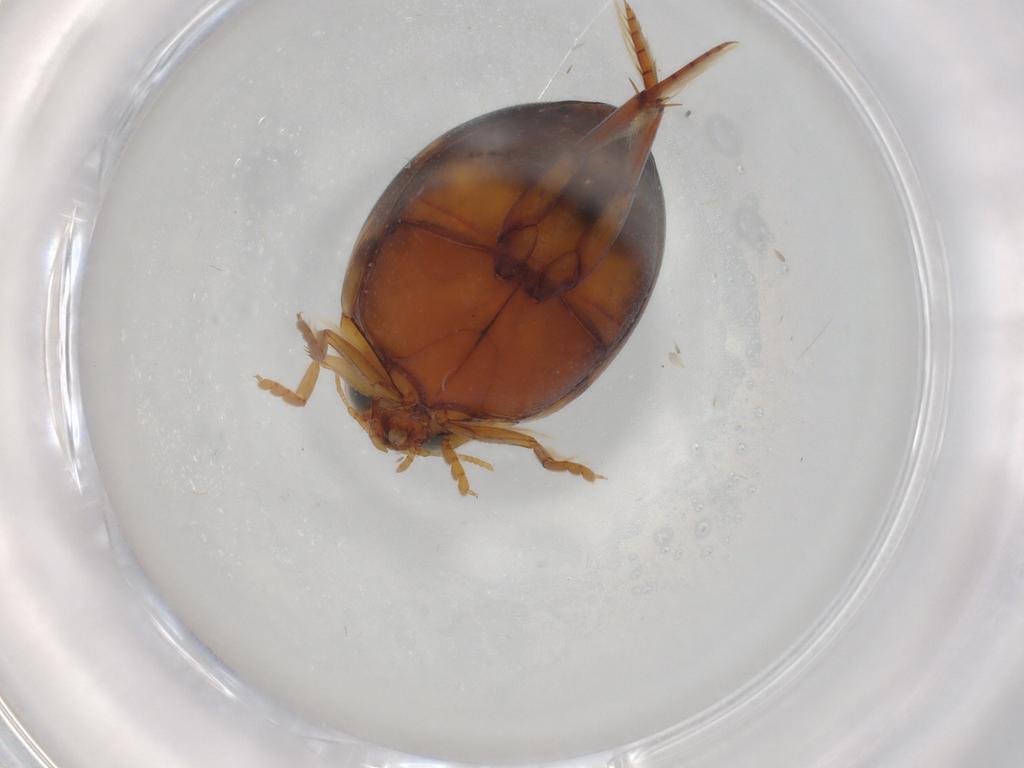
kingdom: Animalia
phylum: Arthropoda
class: Insecta
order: Coleoptera
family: Dytiscidae
